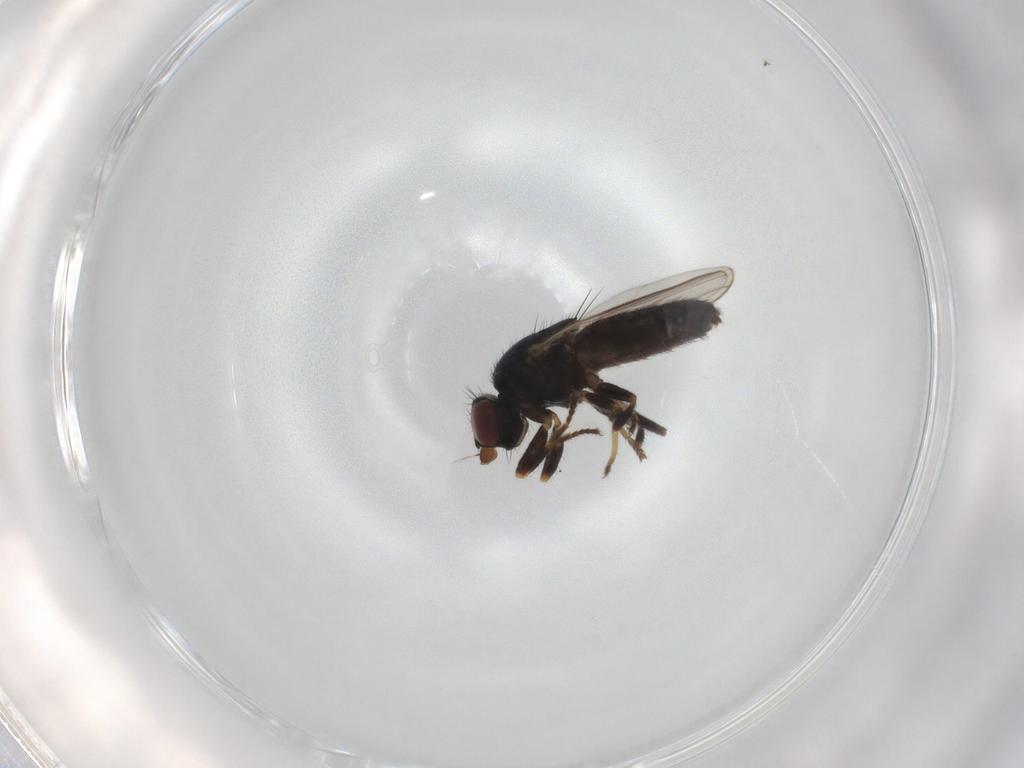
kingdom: Animalia
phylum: Arthropoda
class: Insecta
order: Diptera
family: Chloropidae
